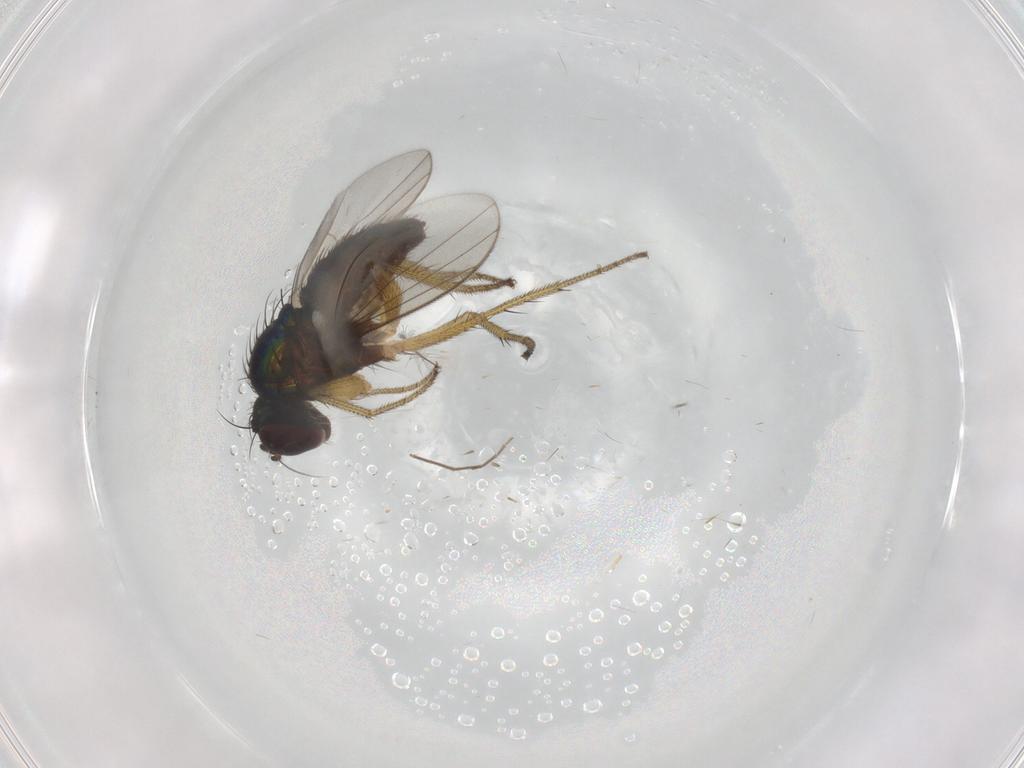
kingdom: Animalia
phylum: Arthropoda
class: Insecta
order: Diptera
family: Chironomidae
